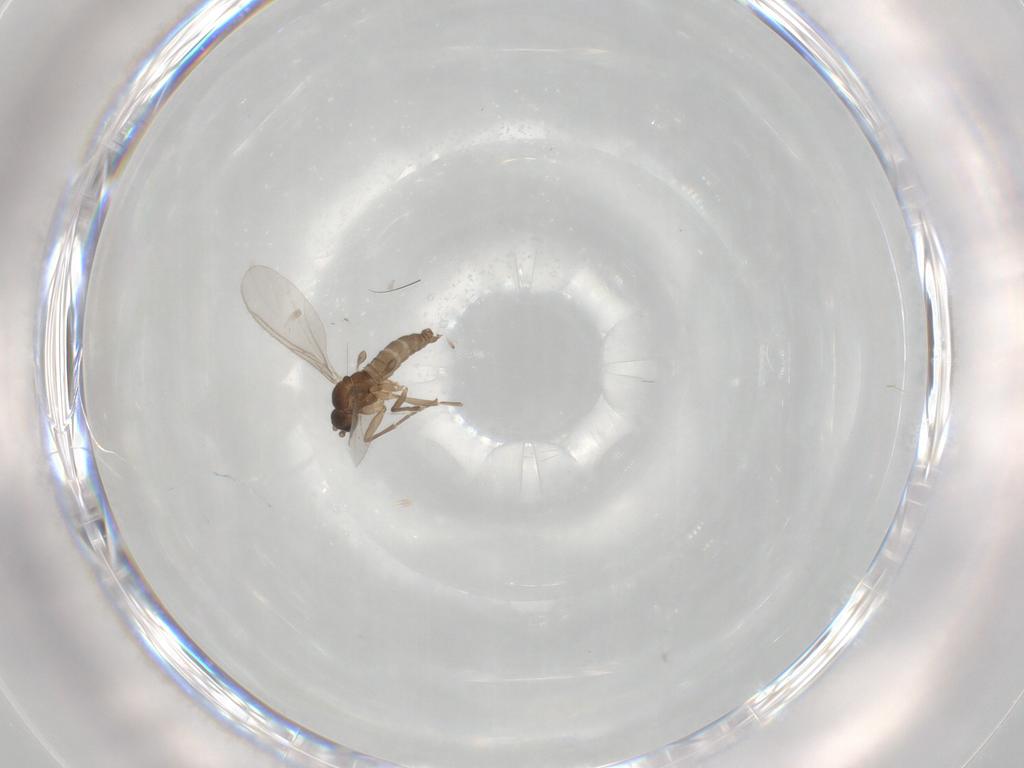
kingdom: Animalia
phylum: Arthropoda
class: Insecta
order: Diptera
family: Sciaridae
